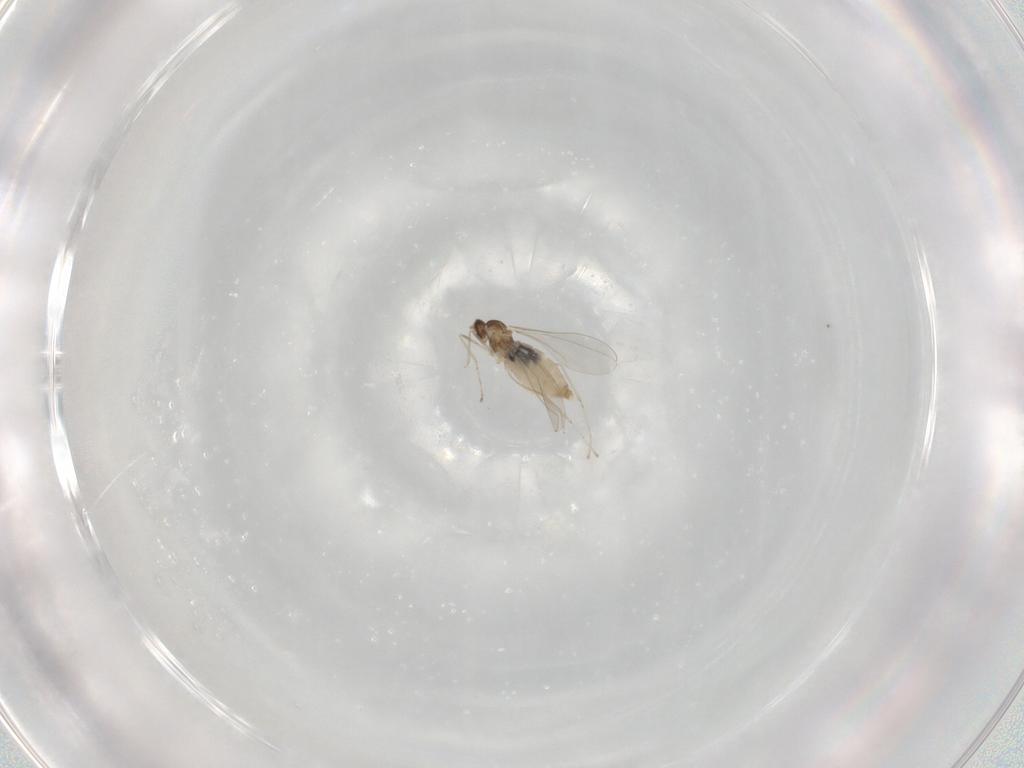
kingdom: Animalia
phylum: Arthropoda
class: Insecta
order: Diptera
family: Cecidomyiidae
